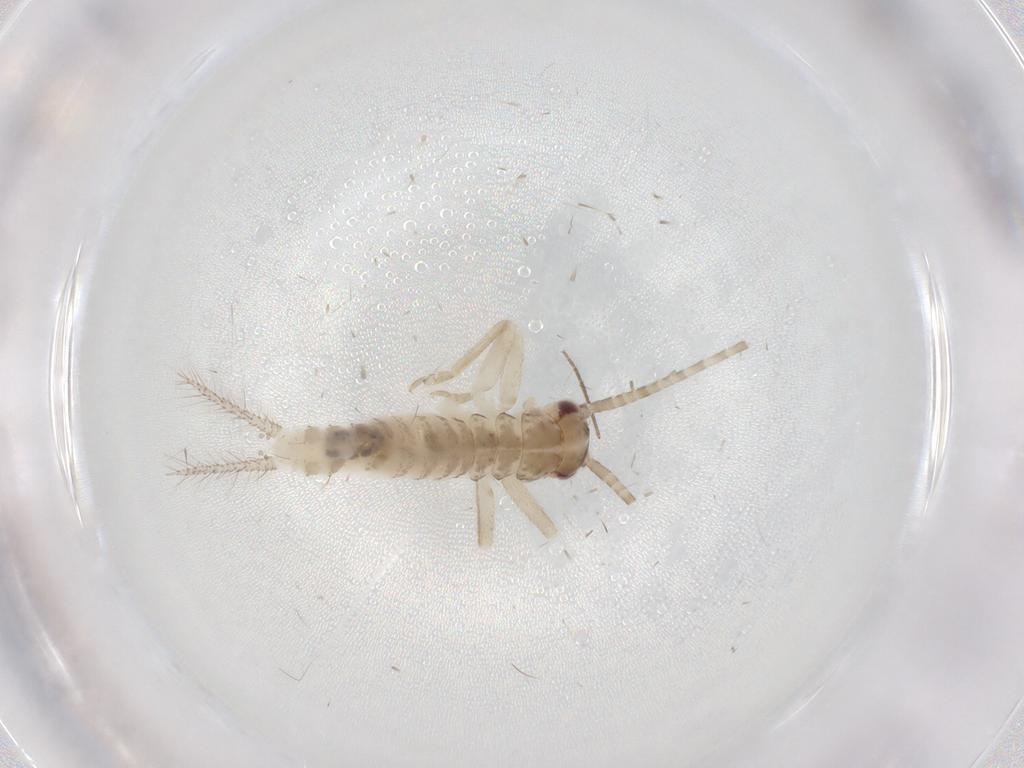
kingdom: Animalia
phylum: Arthropoda
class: Insecta
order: Orthoptera
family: Gryllidae
